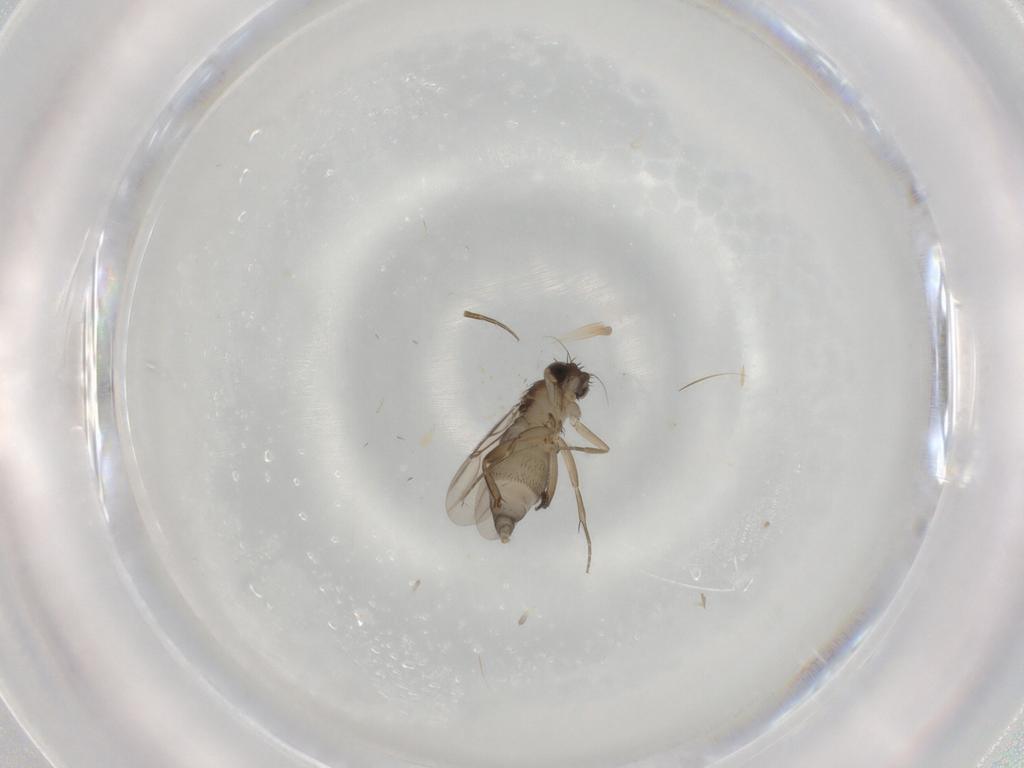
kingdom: Animalia
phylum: Arthropoda
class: Insecta
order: Diptera
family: Phoridae
